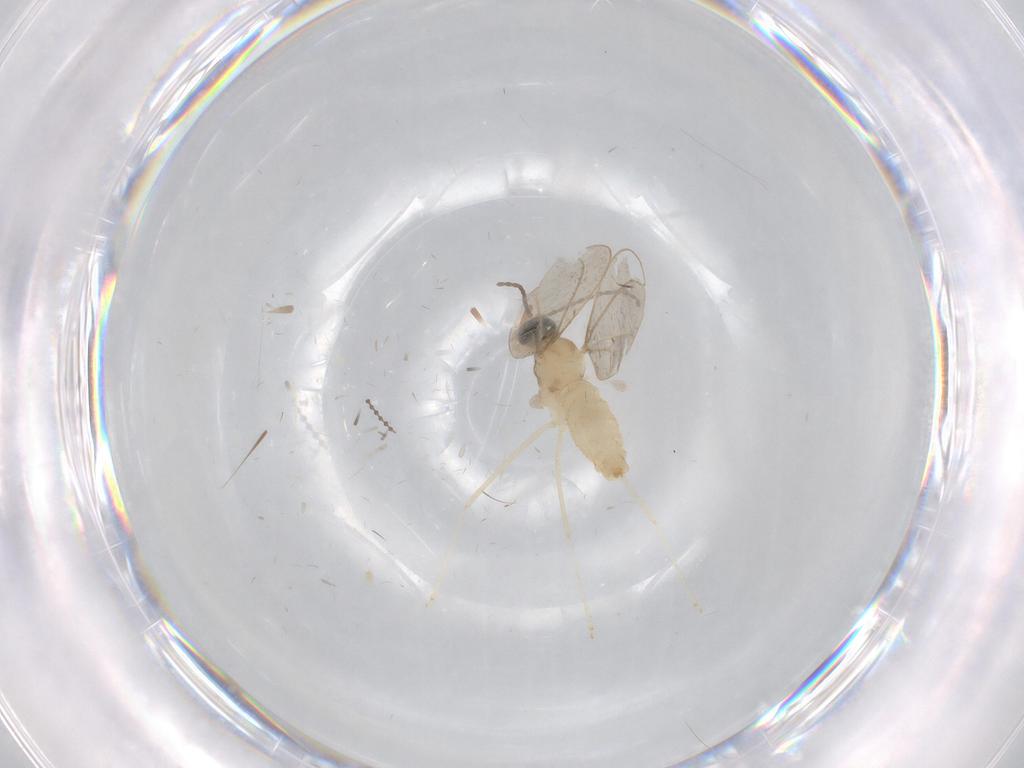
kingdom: Animalia
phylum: Arthropoda
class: Insecta
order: Diptera
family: Cecidomyiidae
